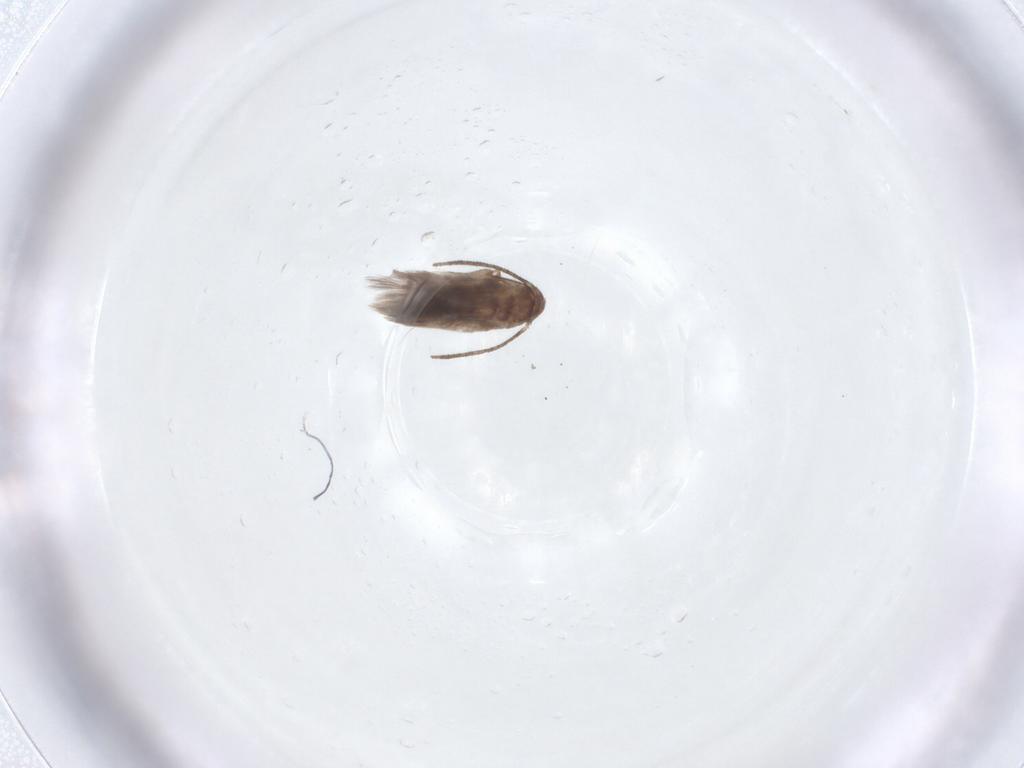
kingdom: Animalia
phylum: Arthropoda
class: Insecta
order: Lepidoptera
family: Lyonetiidae
